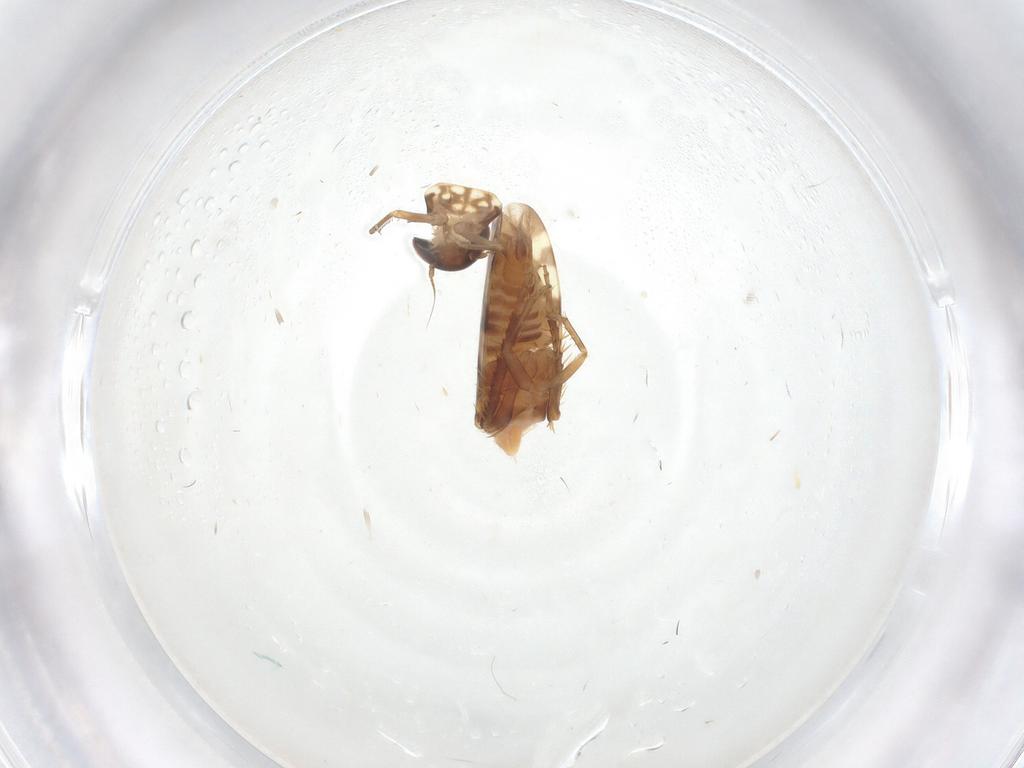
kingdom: Animalia
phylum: Arthropoda
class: Insecta
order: Hemiptera
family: Cicadellidae
